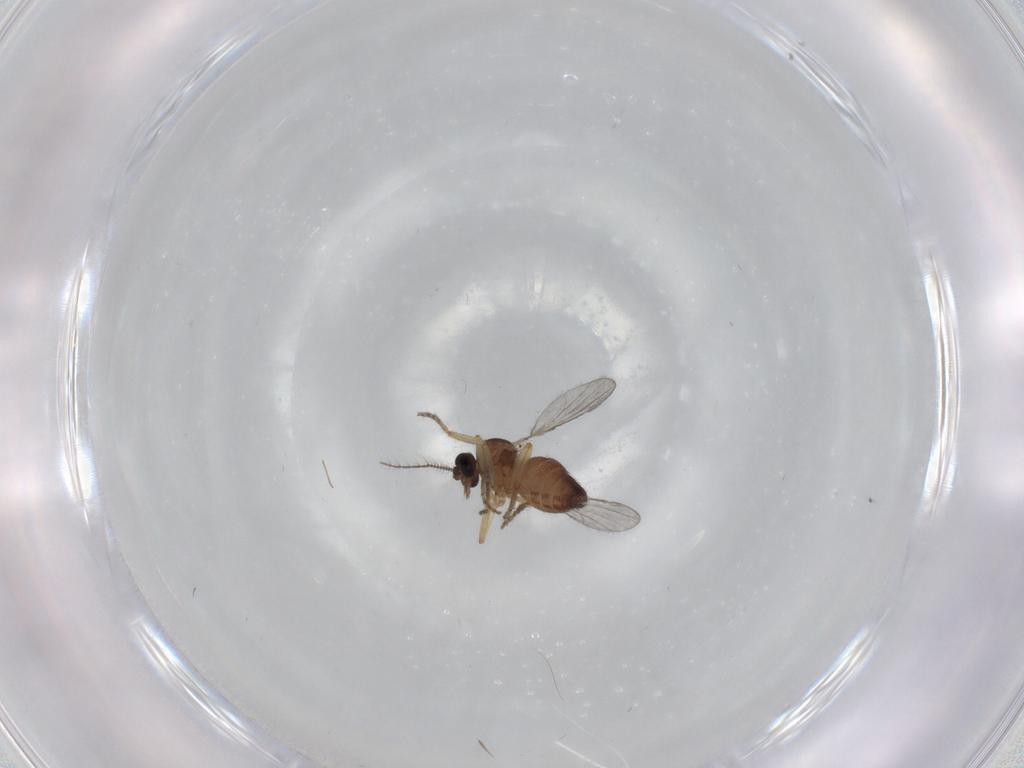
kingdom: Animalia
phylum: Arthropoda
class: Insecta
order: Diptera
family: Ceratopogonidae
